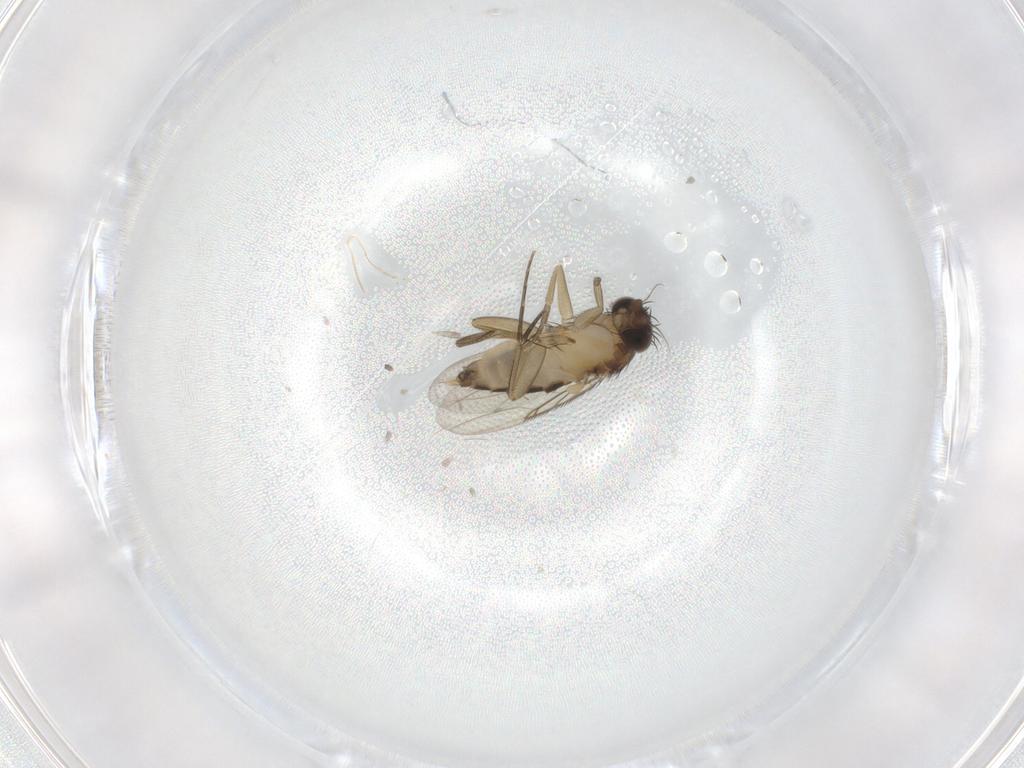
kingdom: Animalia
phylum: Arthropoda
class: Insecta
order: Diptera
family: Phoridae
